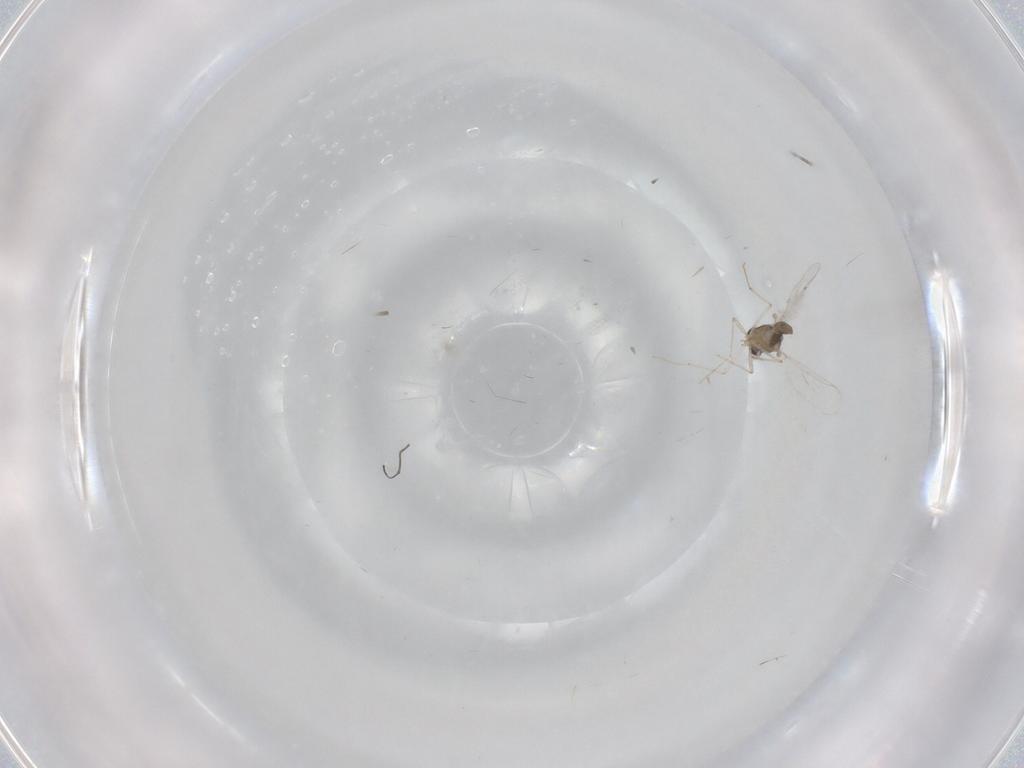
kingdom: Animalia
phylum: Arthropoda
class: Insecta
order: Diptera
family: Chironomidae
